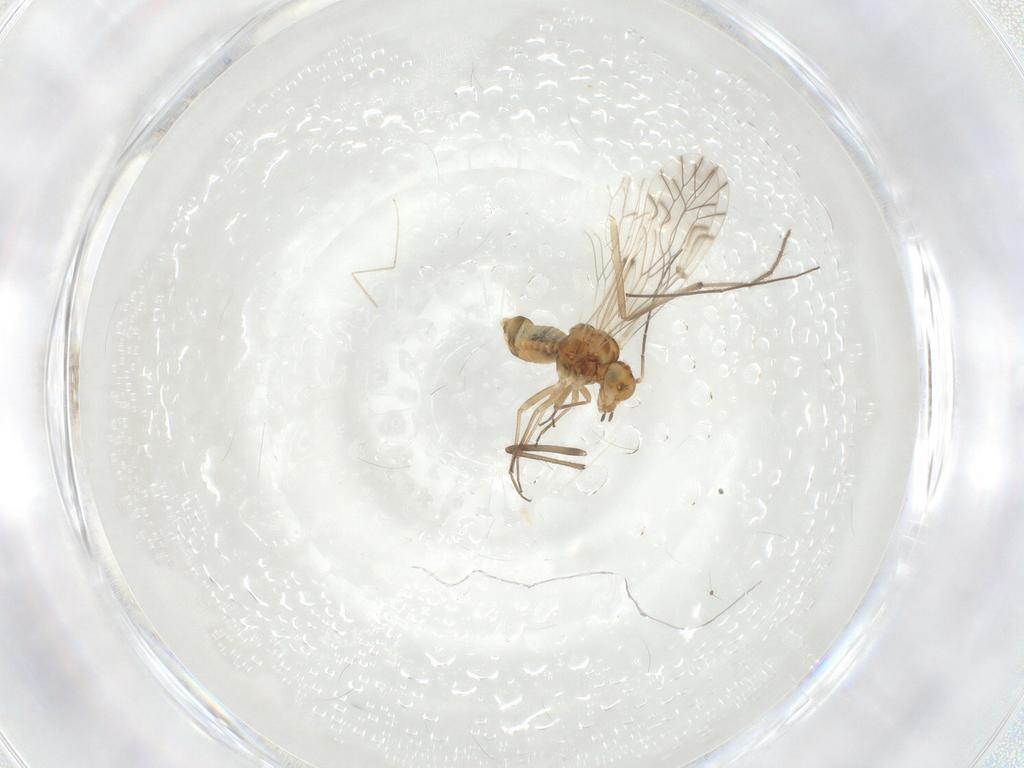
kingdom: Animalia
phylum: Arthropoda
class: Insecta
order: Psocodea
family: Lachesillidae
